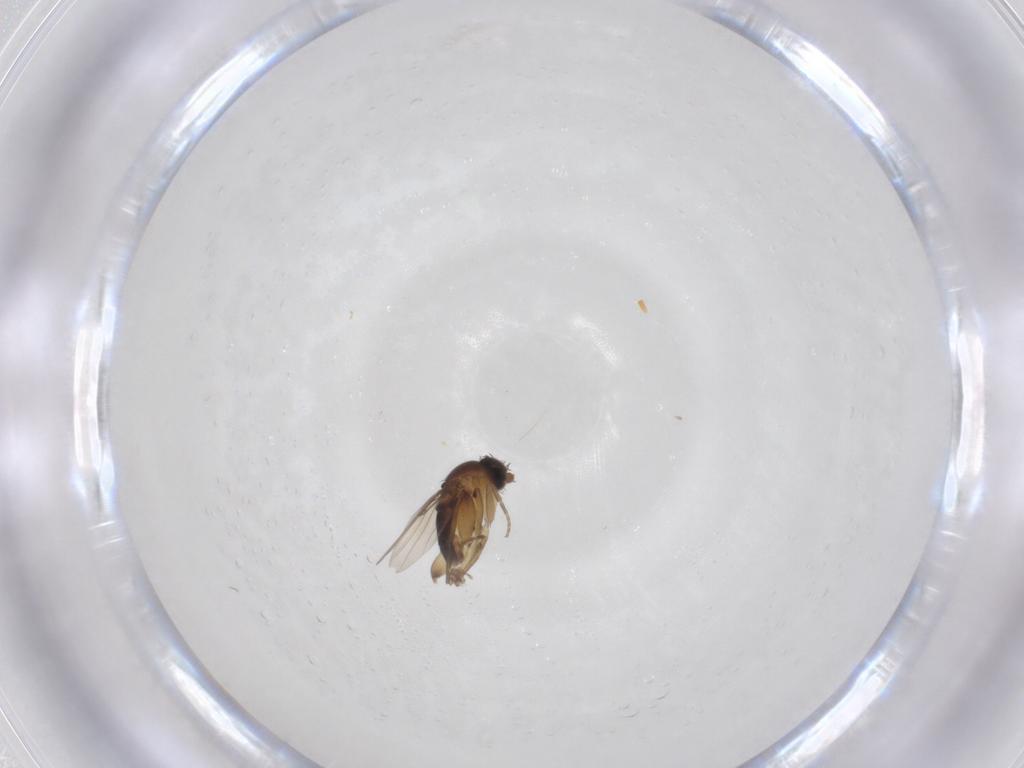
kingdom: Animalia
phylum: Arthropoda
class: Insecta
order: Diptera
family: Phoridae
